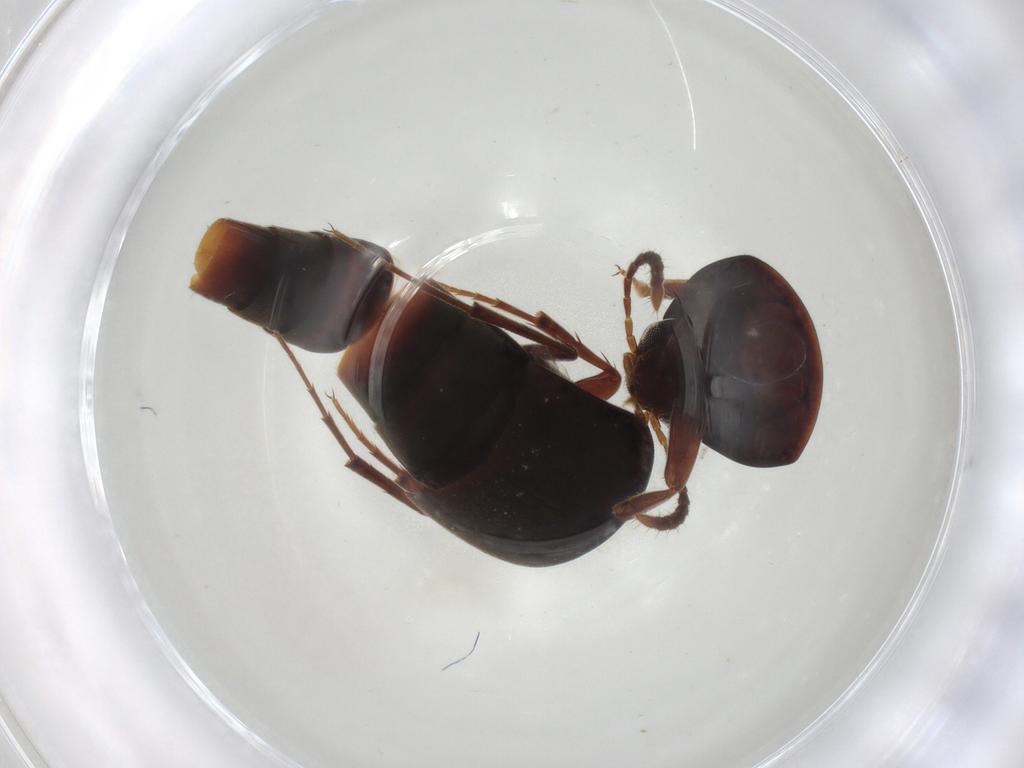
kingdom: Animalia
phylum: Arthropoda
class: Insecta
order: Coleoptera
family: Staphylinidae
